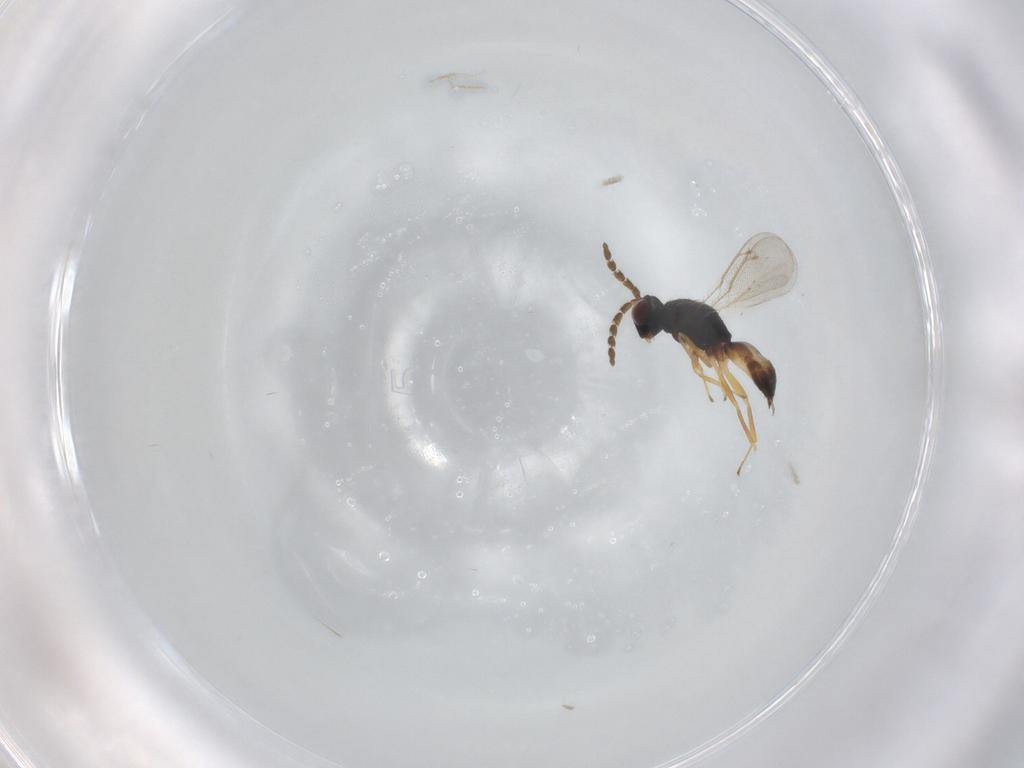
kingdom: Animalia
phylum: Arthropoda
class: Insecta
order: Hymenoptera
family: Eulophidae
